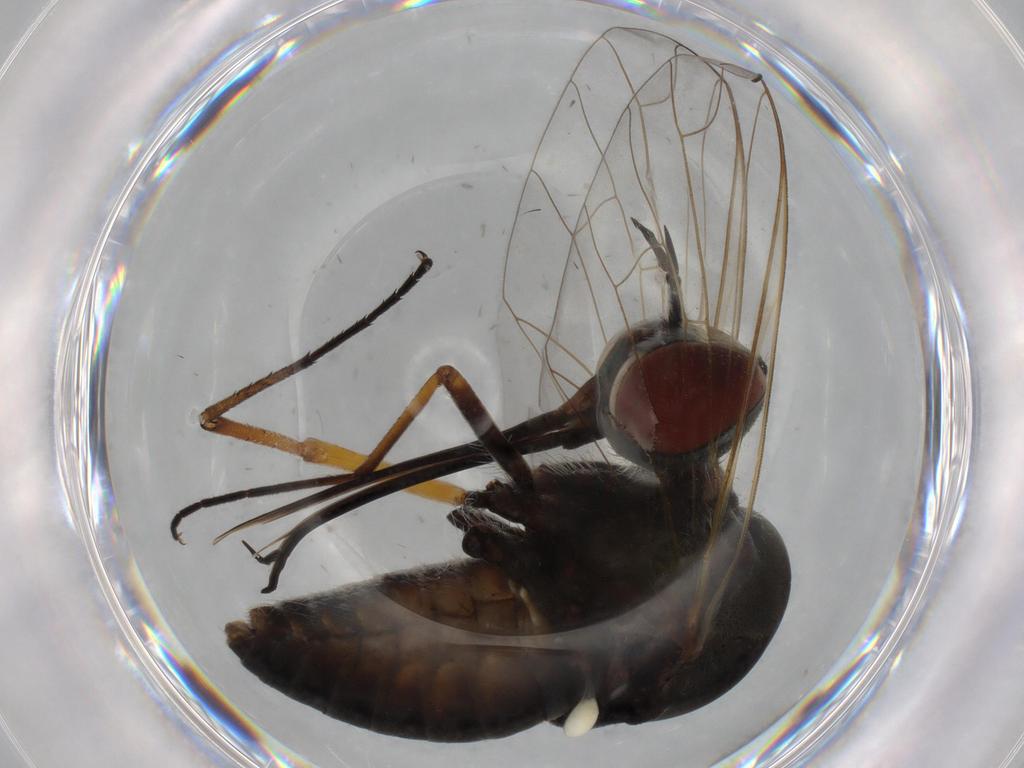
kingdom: Animalia
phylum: Arthropoda
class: Insecta
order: Diptera
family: Bombyliidae
